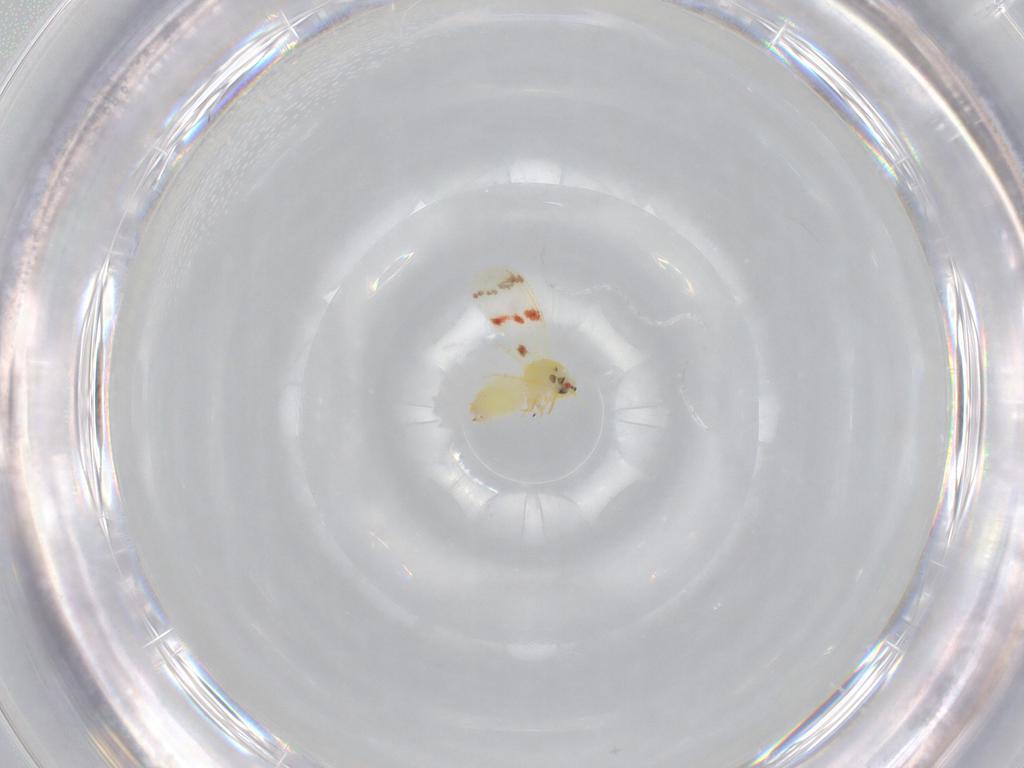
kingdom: Animalia
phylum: Arthropoda
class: Insecta
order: Hemiptera
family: Aleyrodidae
